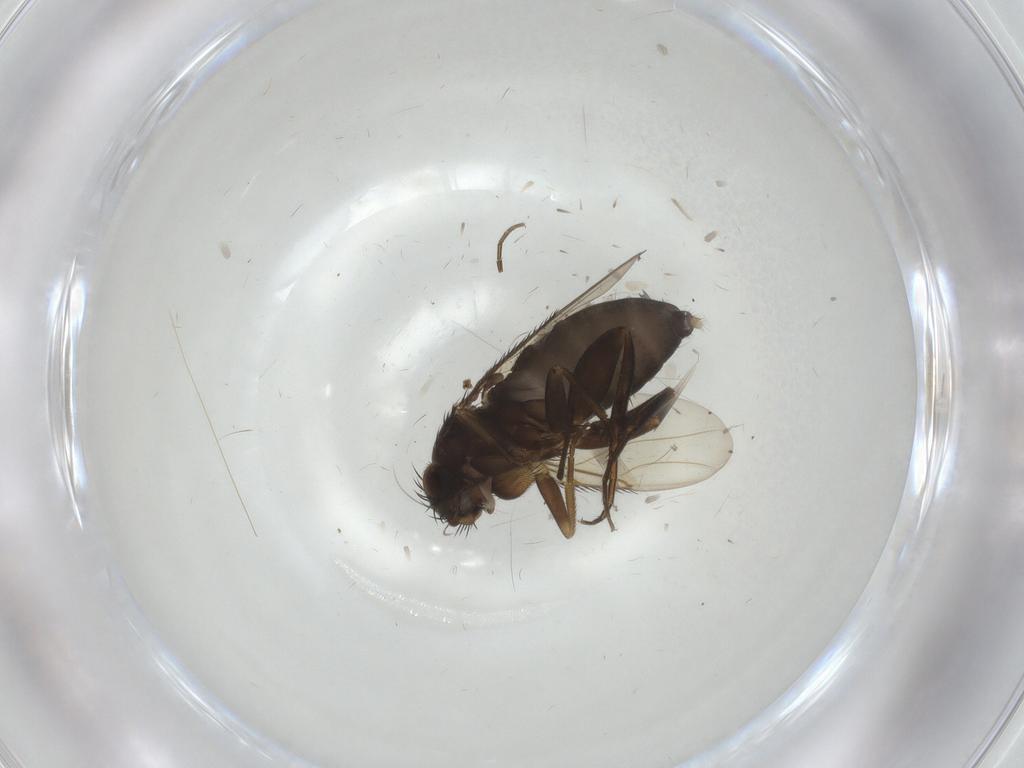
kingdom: Animalia
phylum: Arthropoda
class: Insecta
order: Diptera
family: Phoridae
